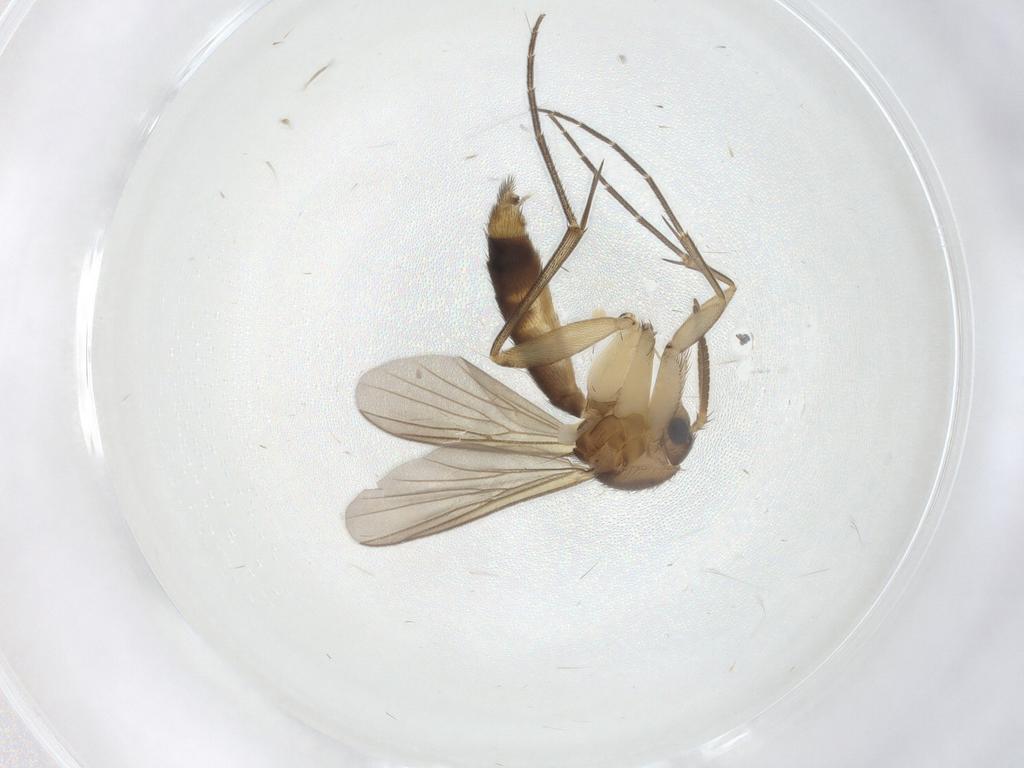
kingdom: Animalia
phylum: Arthropoda
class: Insecta
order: Diptera
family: Mycetophilidae
